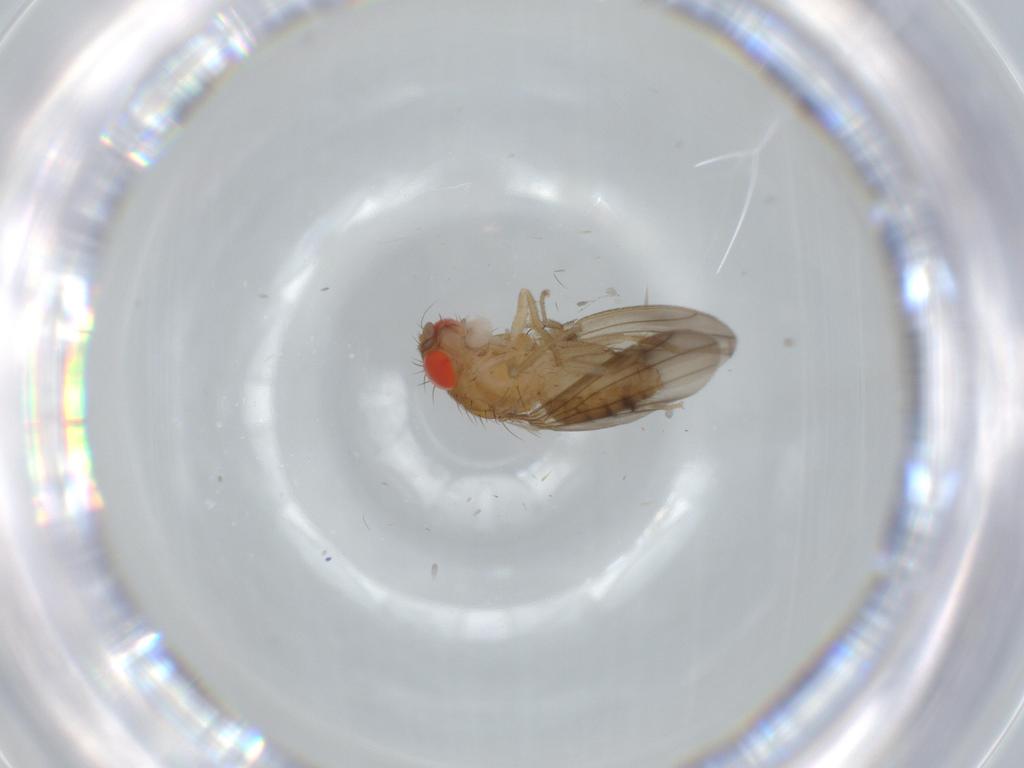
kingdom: Animalia
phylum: Arthropoda
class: Insecta
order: Diptera
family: Drosophilidae
